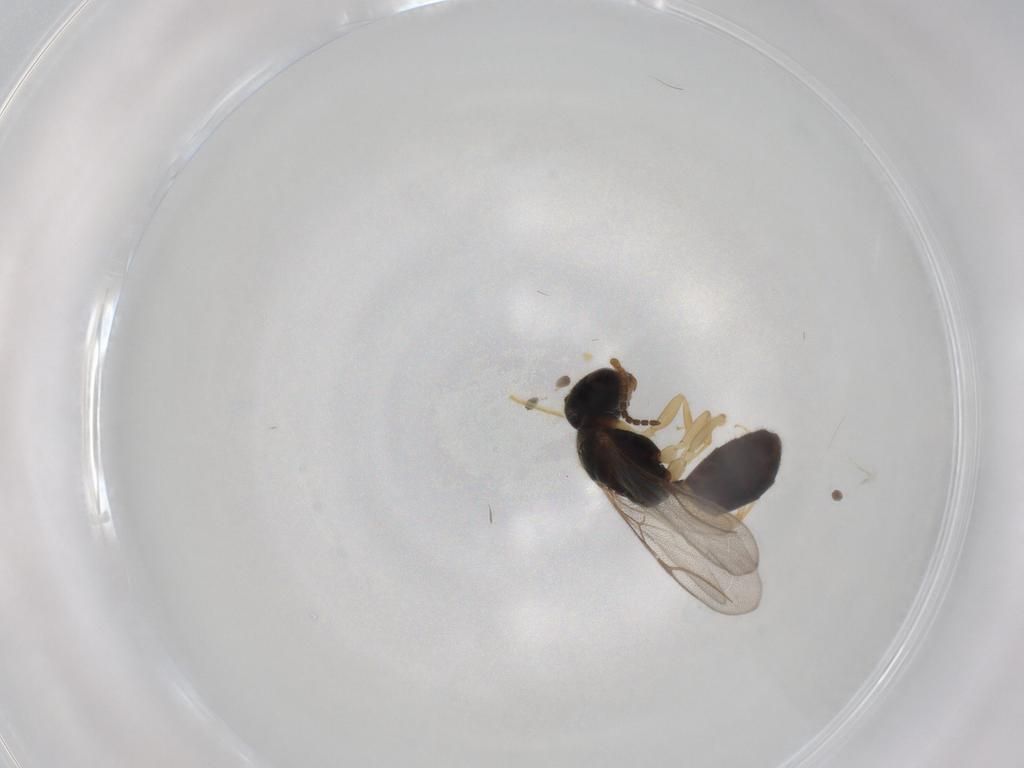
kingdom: Animalia
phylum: Arthropoda
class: Insecta
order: Hymenoptera
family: Bethylidae
